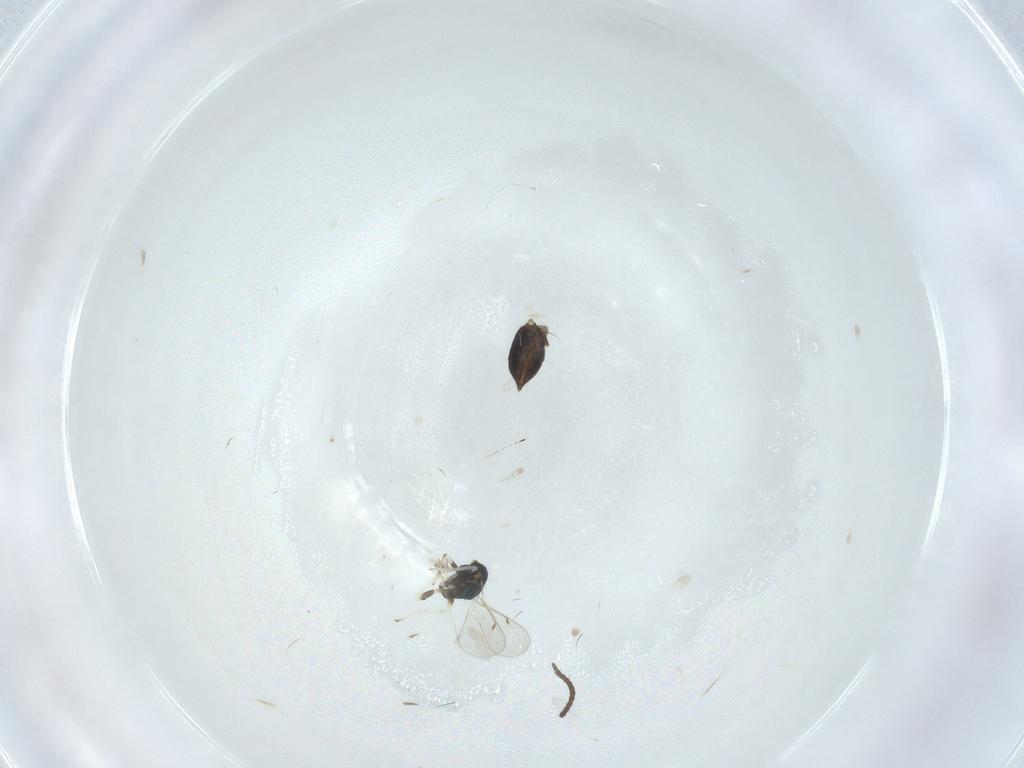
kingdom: Animalia
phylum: Arthropoda
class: Insecta
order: Hymenoptera
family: Eulophidae
